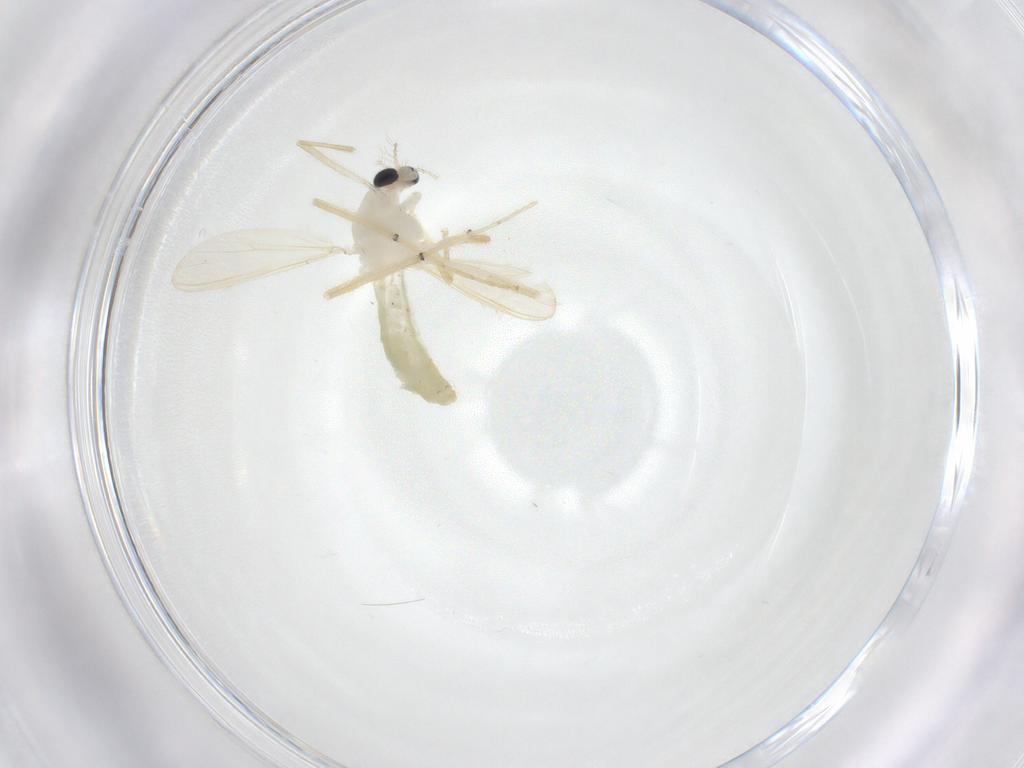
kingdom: Animalia
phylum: Arthropoda
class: Insecta
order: Diptera
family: Chironomidae
